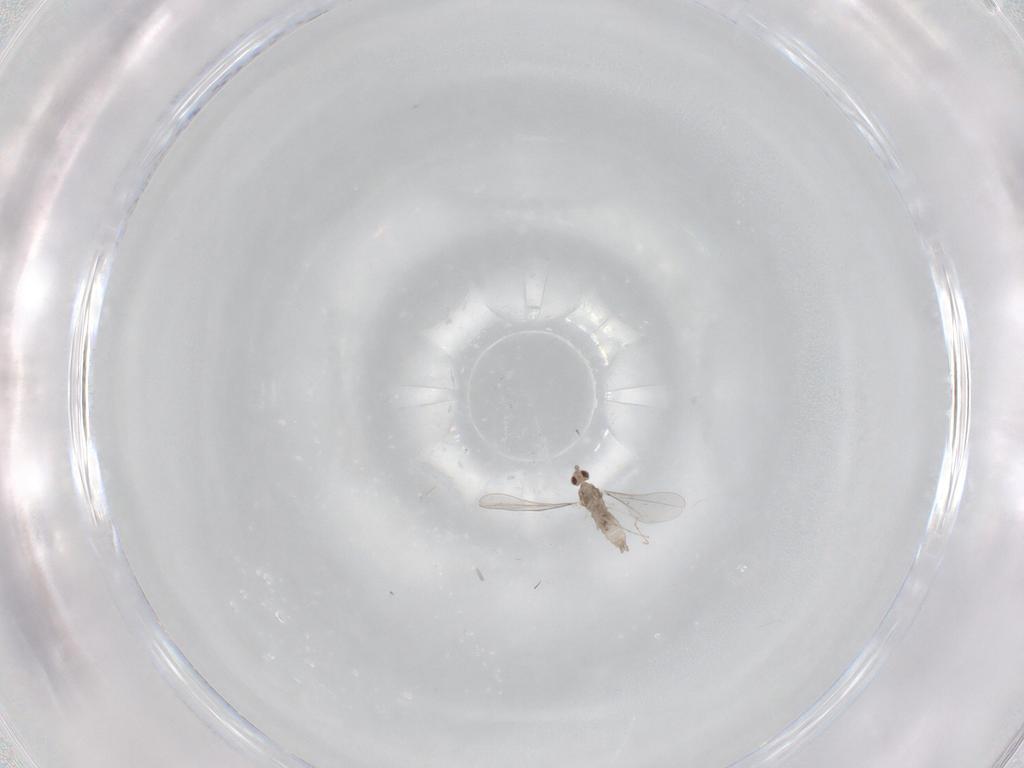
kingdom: Animalia
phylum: Arthropoda
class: Insecta
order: Diptera
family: Cecidomyiidae
